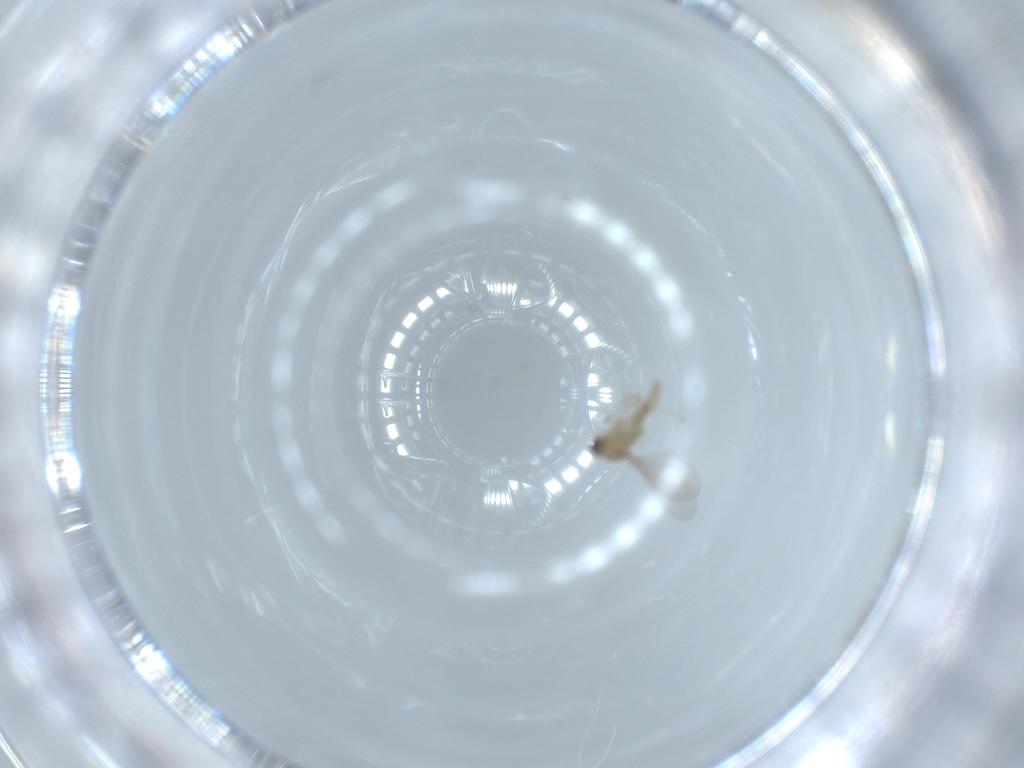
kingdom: Animalia
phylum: Arthropoda
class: Insecta
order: Diptera
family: Cecidomyiidae
